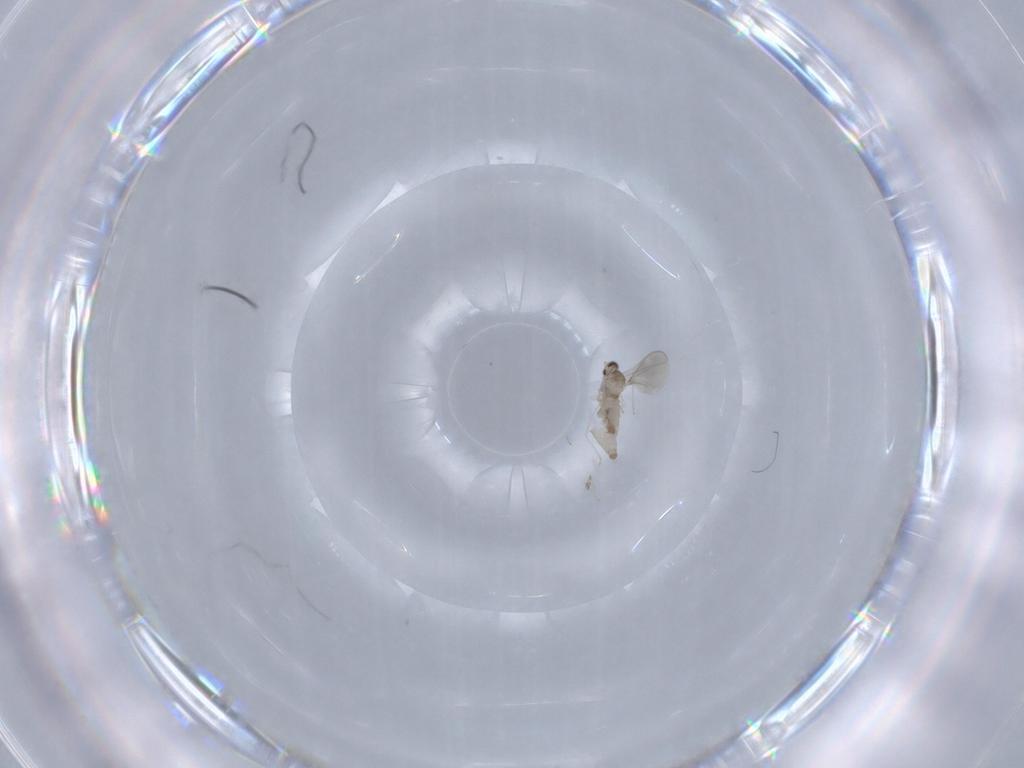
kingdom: Animalia
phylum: Arthropoda
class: Insecta
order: Diptera
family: Cecidomyiidae
